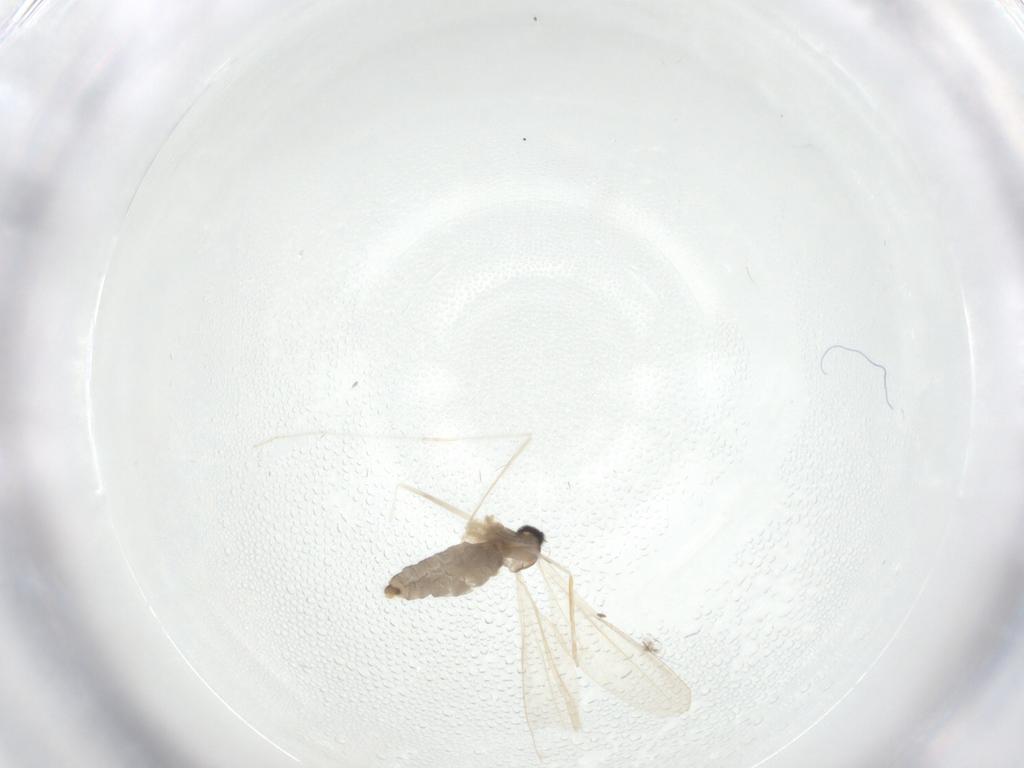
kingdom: Animalia
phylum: Arthropoda
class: Insecta
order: Diptera
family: Cecidomyiidae
